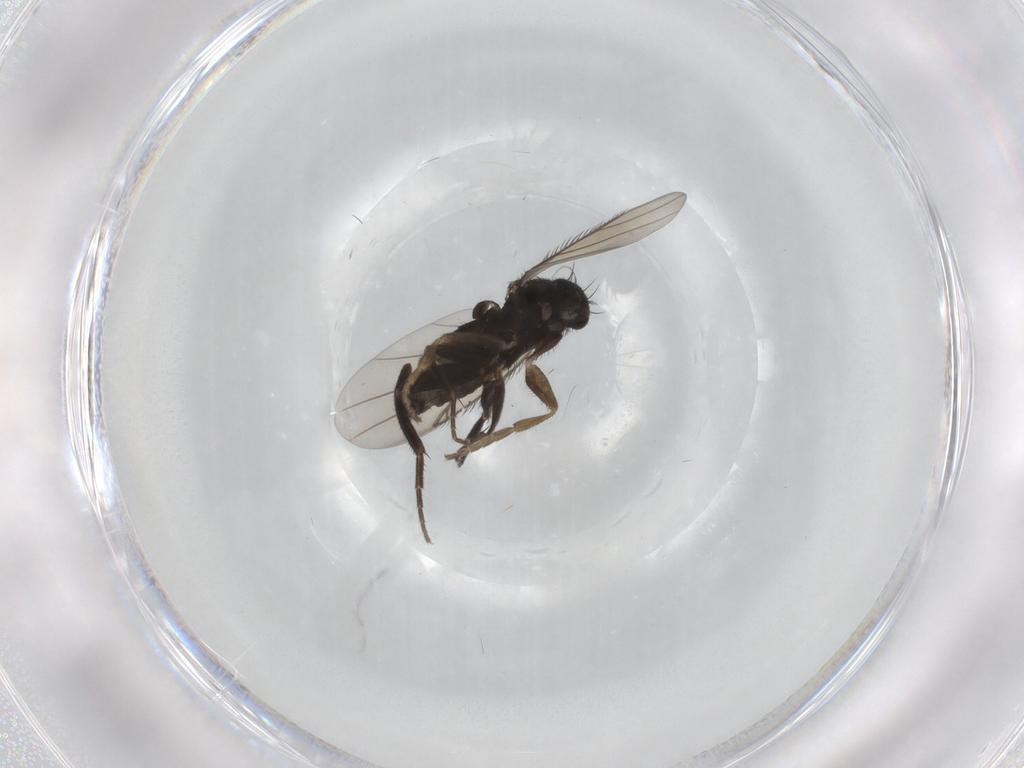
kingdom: Animalia
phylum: Arthropoda
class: Insecta
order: Diptera
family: Phoridae
